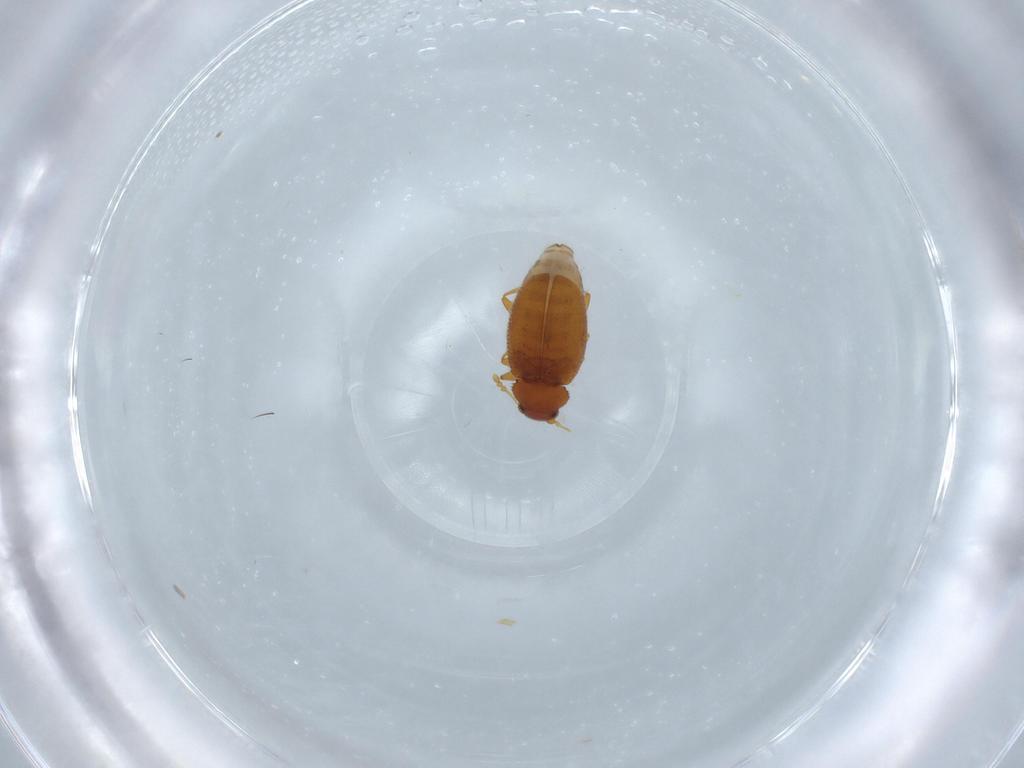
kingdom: Animalia
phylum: Arthropoda
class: Insecta
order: Coleoptera
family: Latridiidae
